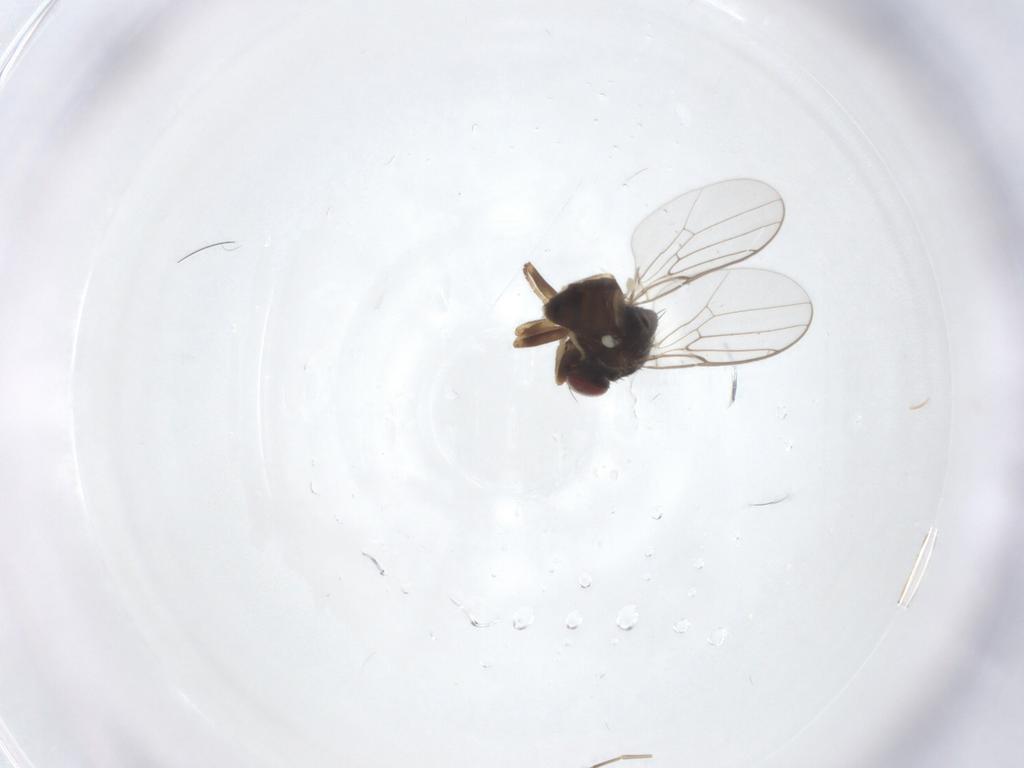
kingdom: Animalia
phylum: Arthropoda
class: Insecta
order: Diptera
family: Chloropidae
